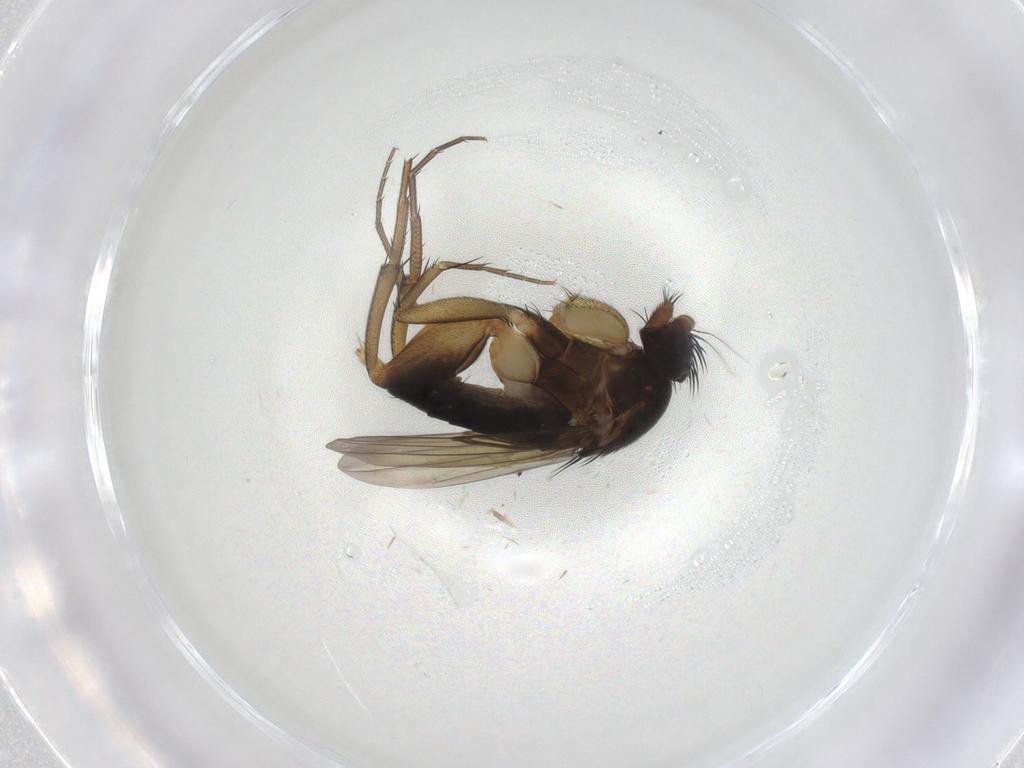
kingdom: Animalia
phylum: Arthropoda
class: Insecta
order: Diptera
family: Phoridae
